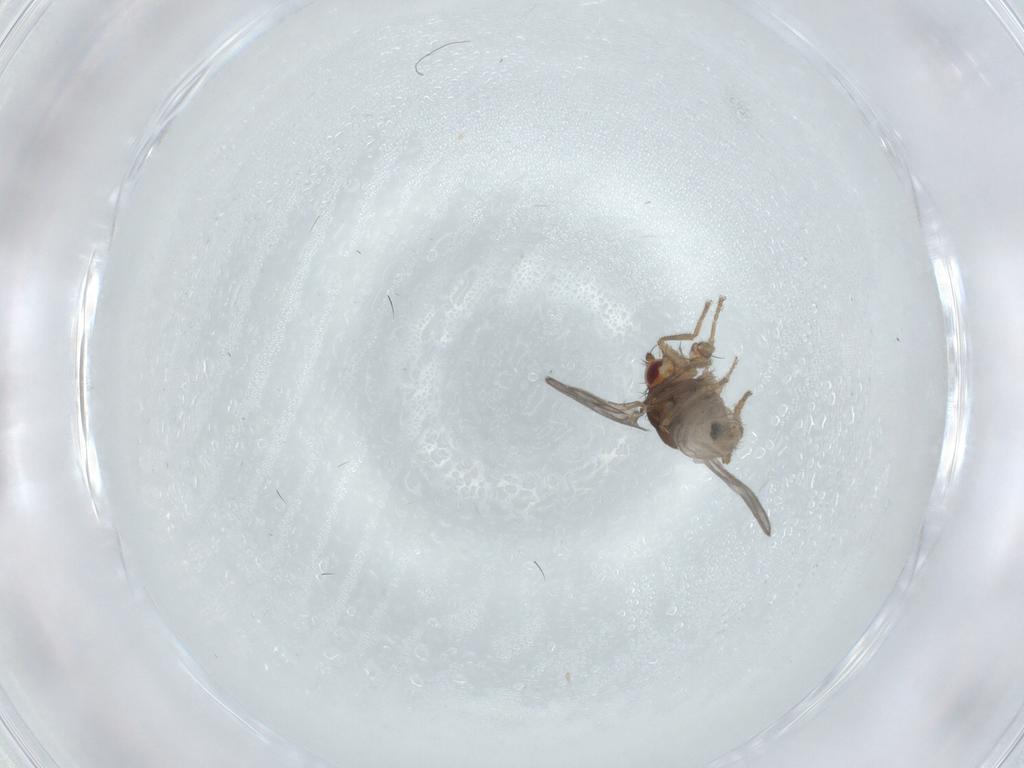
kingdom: Animalia
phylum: Arthropoda
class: Insecta
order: Diptera
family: Sphaeroceridae
